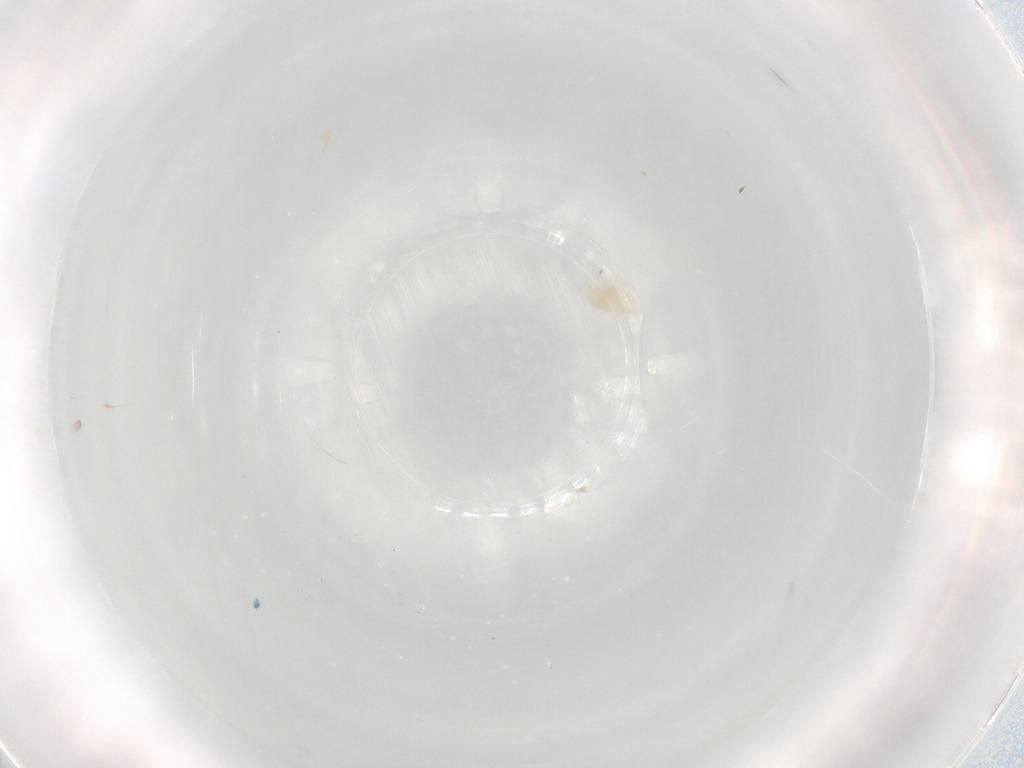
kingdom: Animalia
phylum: Arthropoda
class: Arachnida
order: Trombidiformes
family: Eupodidae
